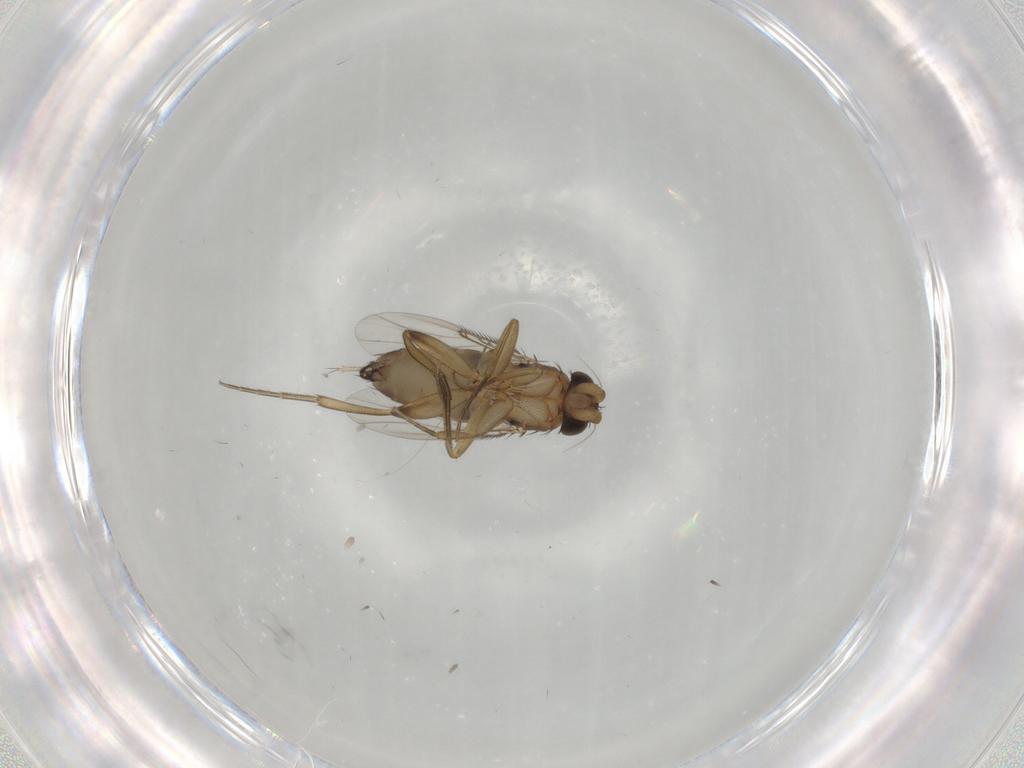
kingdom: Animalia
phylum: Arthropoda
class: Insecta
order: Diptera
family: Ceratopogonidae
